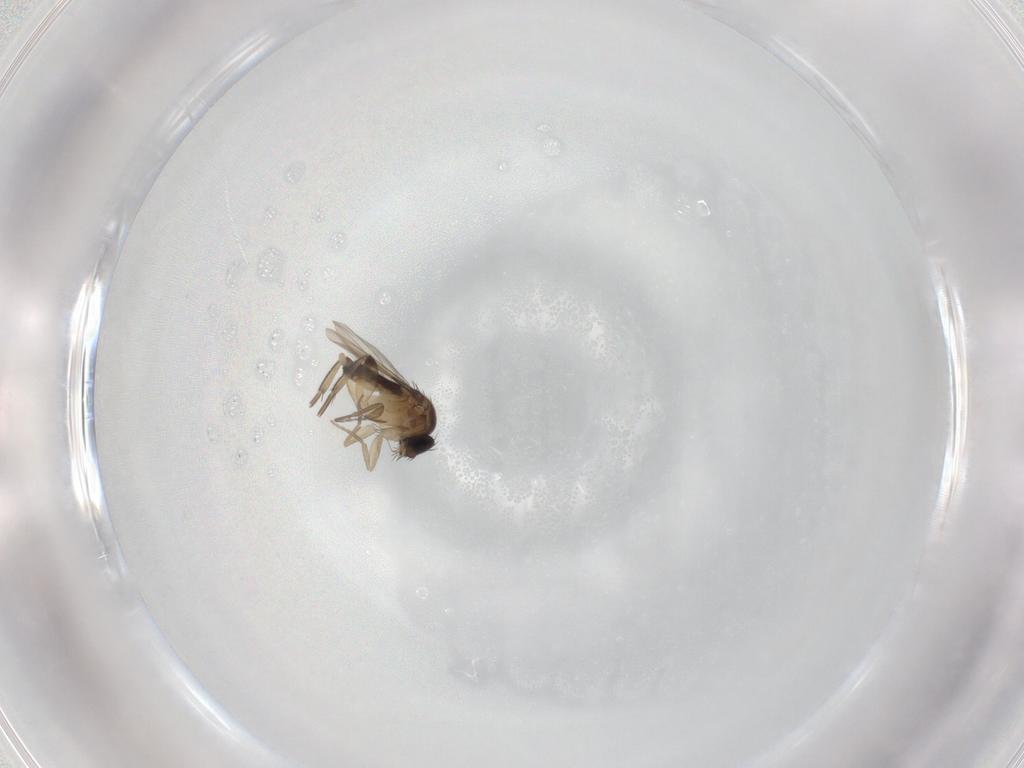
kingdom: Animalia
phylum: Arthropoda
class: Insecta
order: Diptera
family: Phoridae
